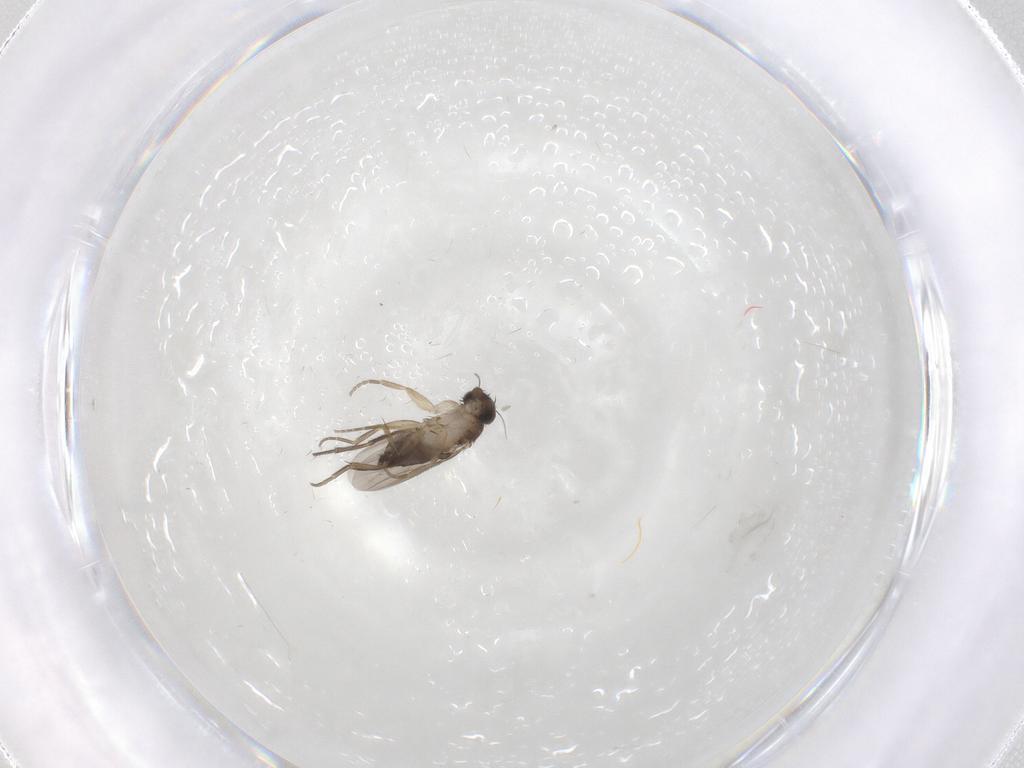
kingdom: Animalia
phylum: Arthropoda
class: Insecta
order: Diptera
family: Phoridae
